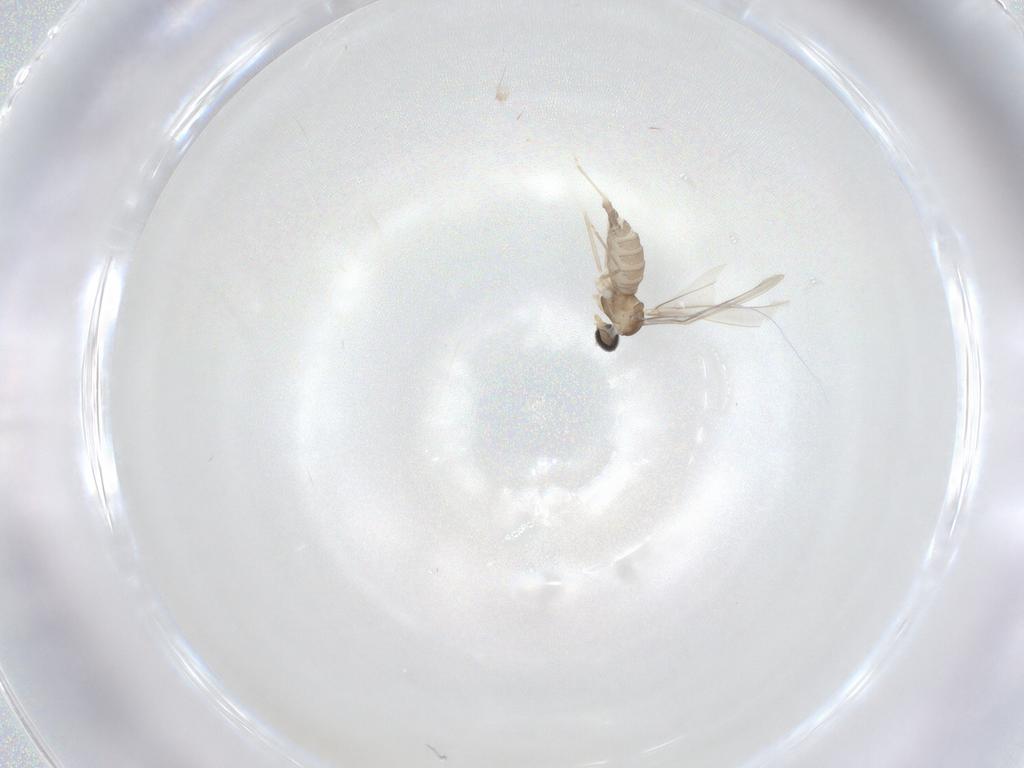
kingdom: Animalia
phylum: Arthropoda
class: Insecta
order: Diptera
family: Cecidomyiidae
